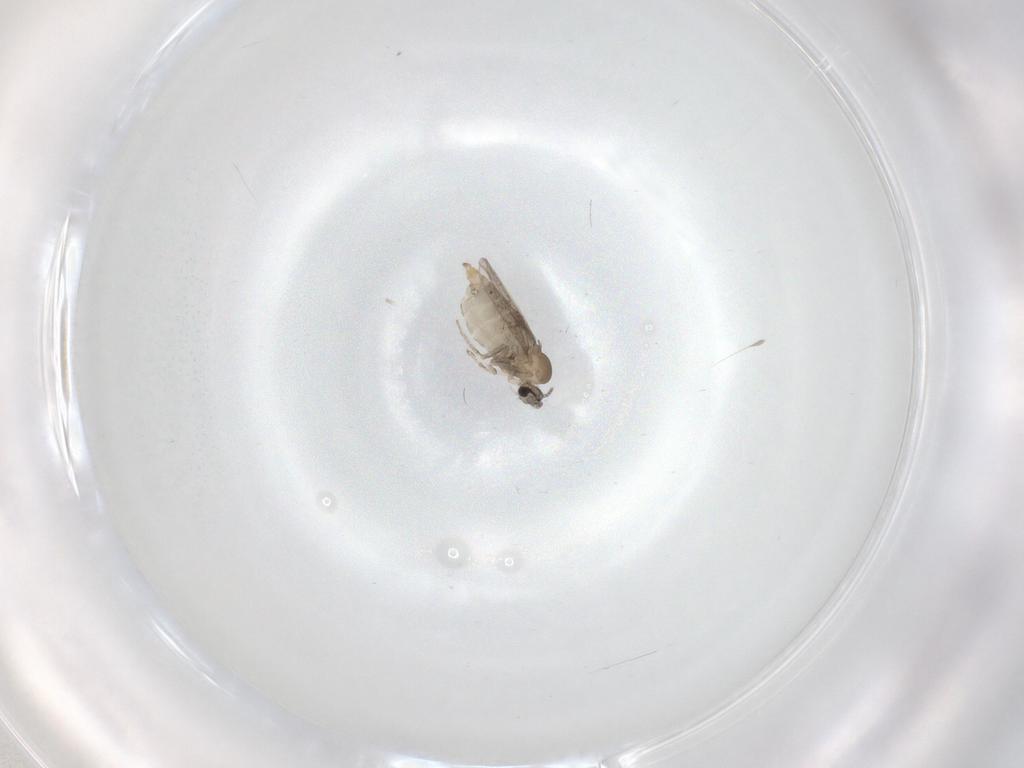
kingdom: Animalia
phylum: Arthropoda
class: Insecta
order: Diptera
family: Cecidomyiidae
